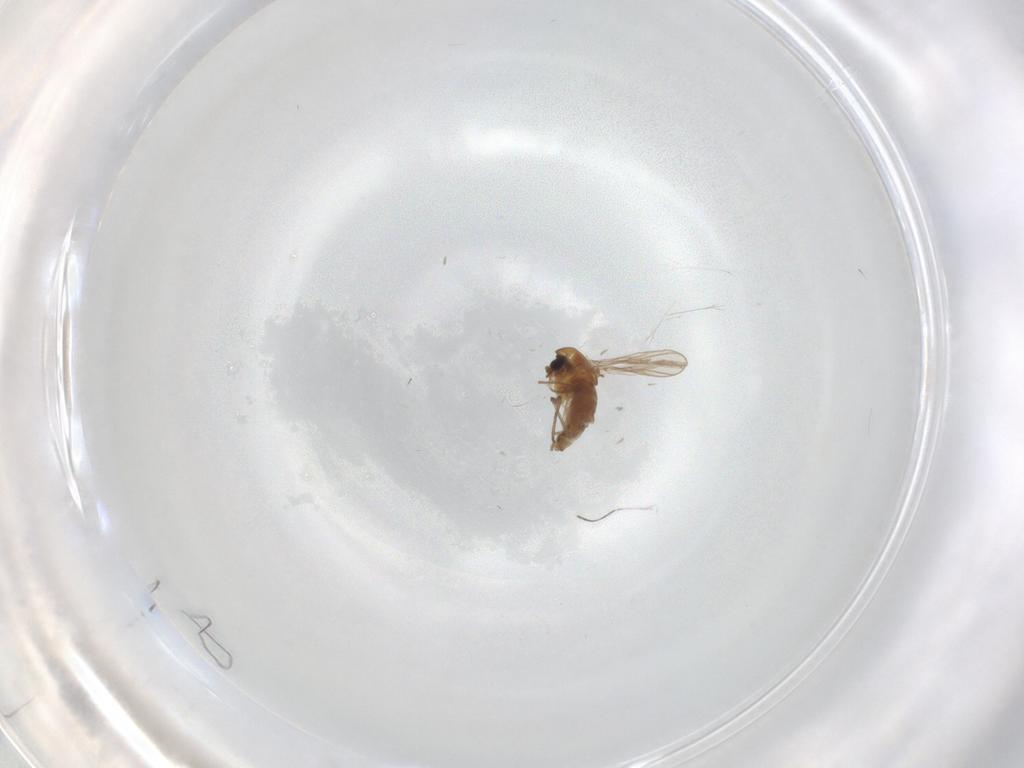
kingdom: Animalia
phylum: Arthropoda
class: Insecta
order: Diptera
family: Mycetophilidae
